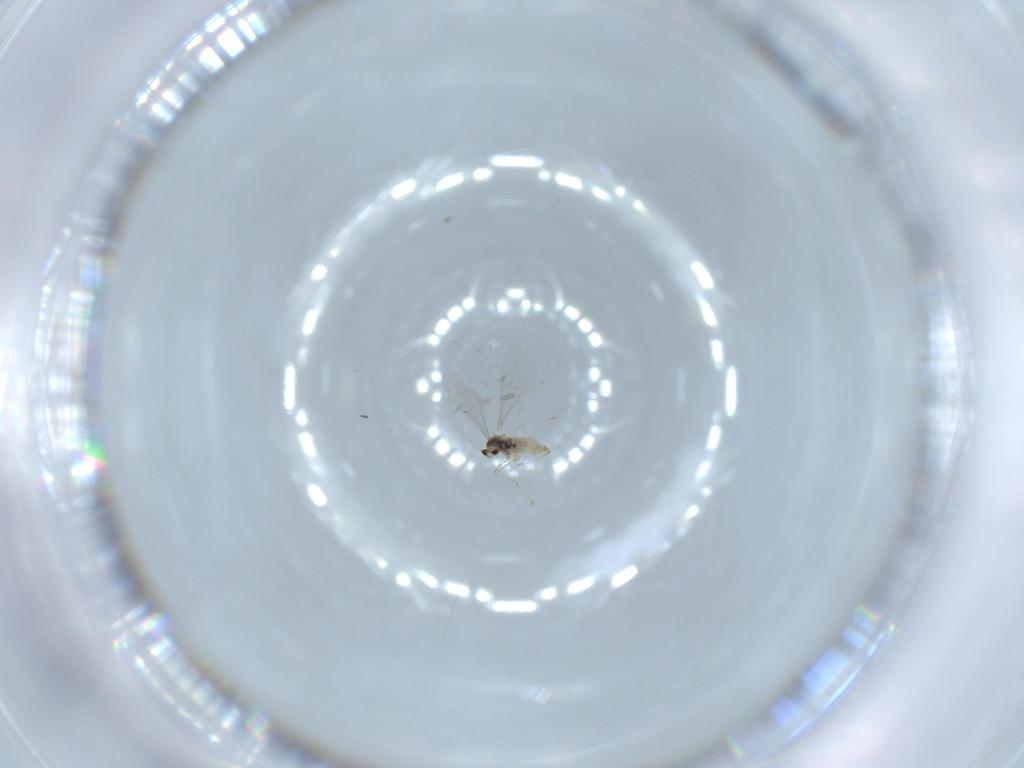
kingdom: Animalia
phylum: Arthropoda
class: Insecta
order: Diptera
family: Cecidomyiidae
